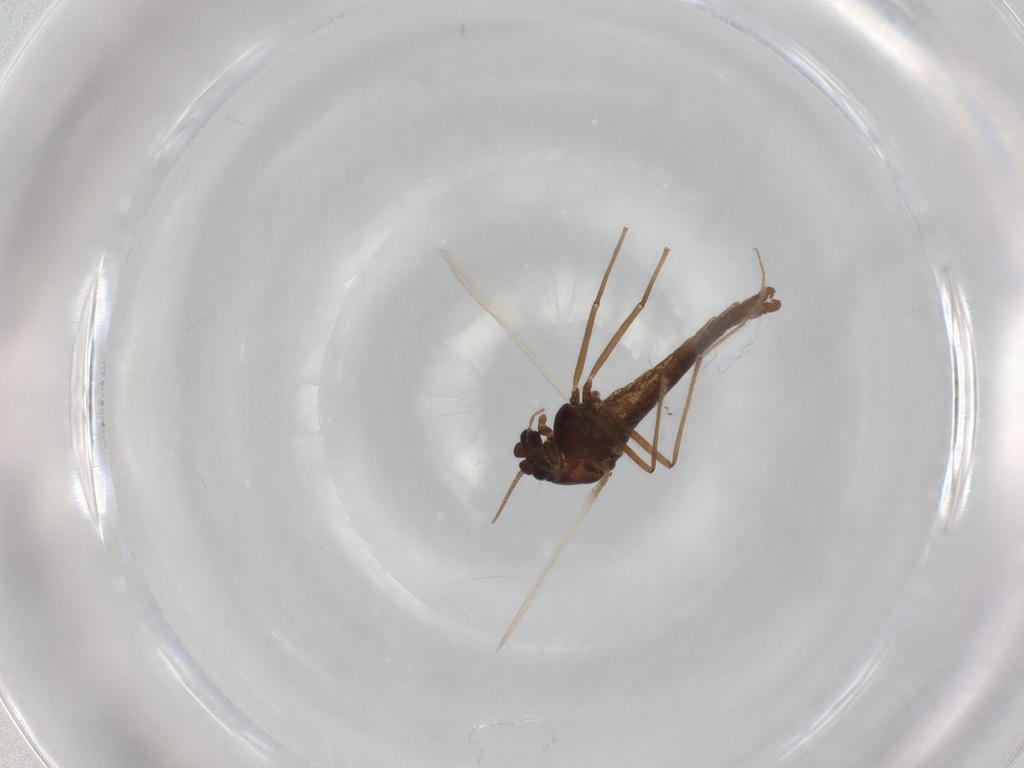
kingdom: Animalia
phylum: Arthropoda
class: Insecta
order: Diptera
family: Chironomidae
